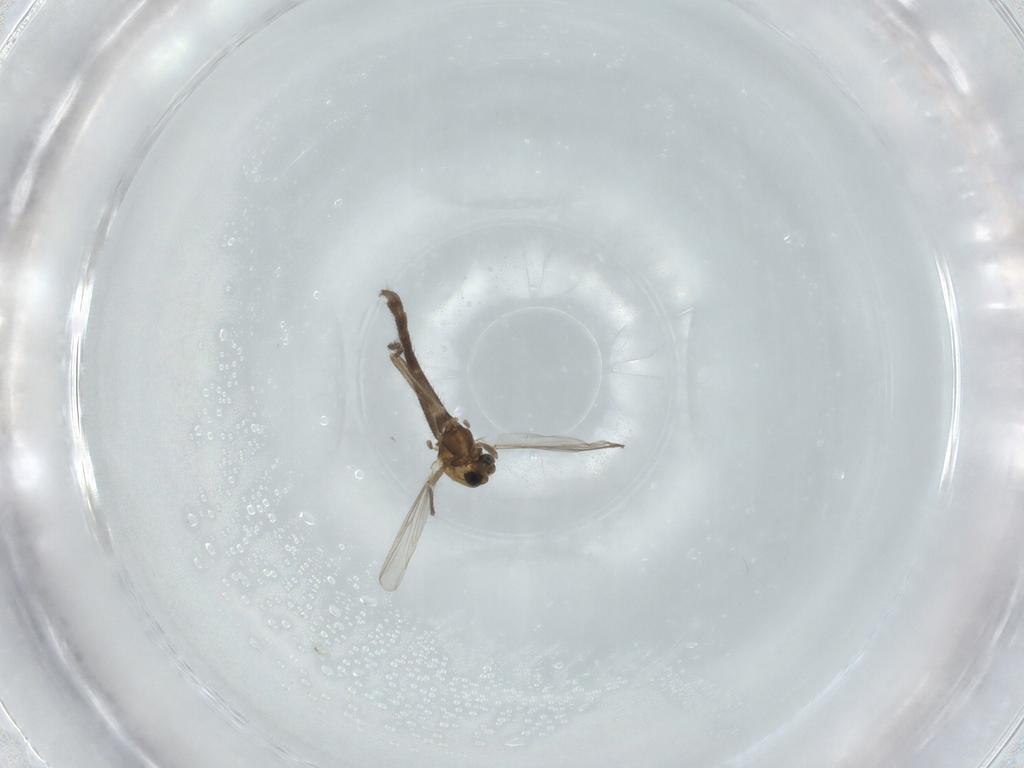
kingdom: Animalia
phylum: Arthropoda
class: Insecta
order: Diptera
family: Chironomidae
